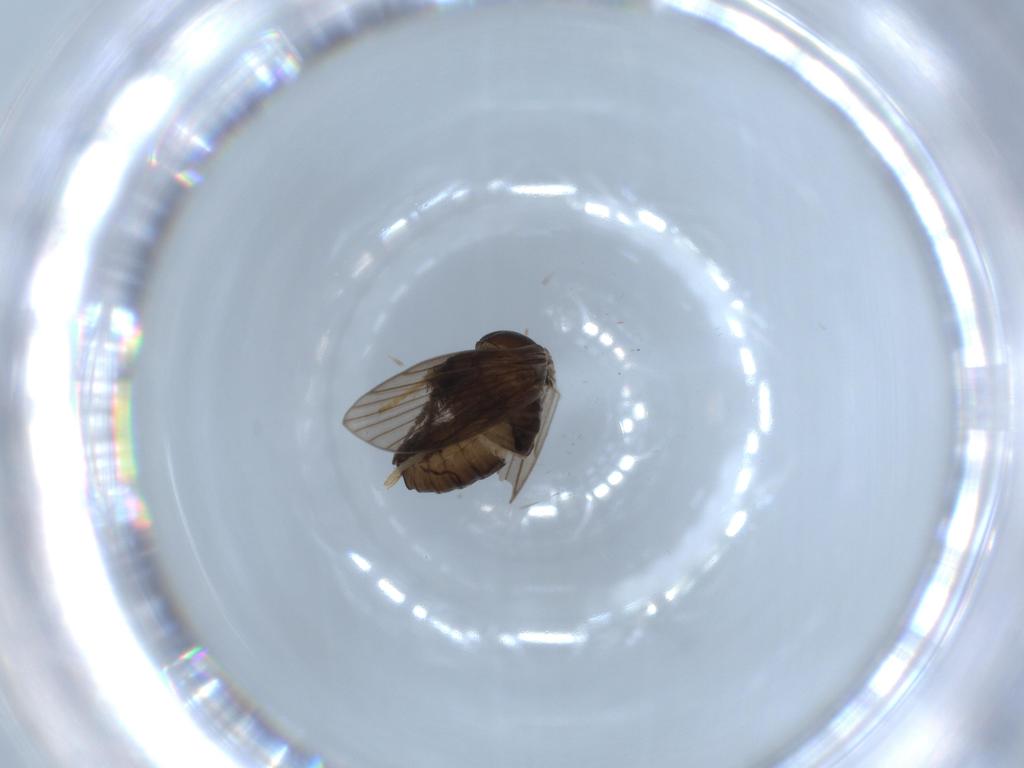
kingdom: Animalia
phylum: Arthropoda
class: Insecta
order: Diptera
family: Psychodidae
